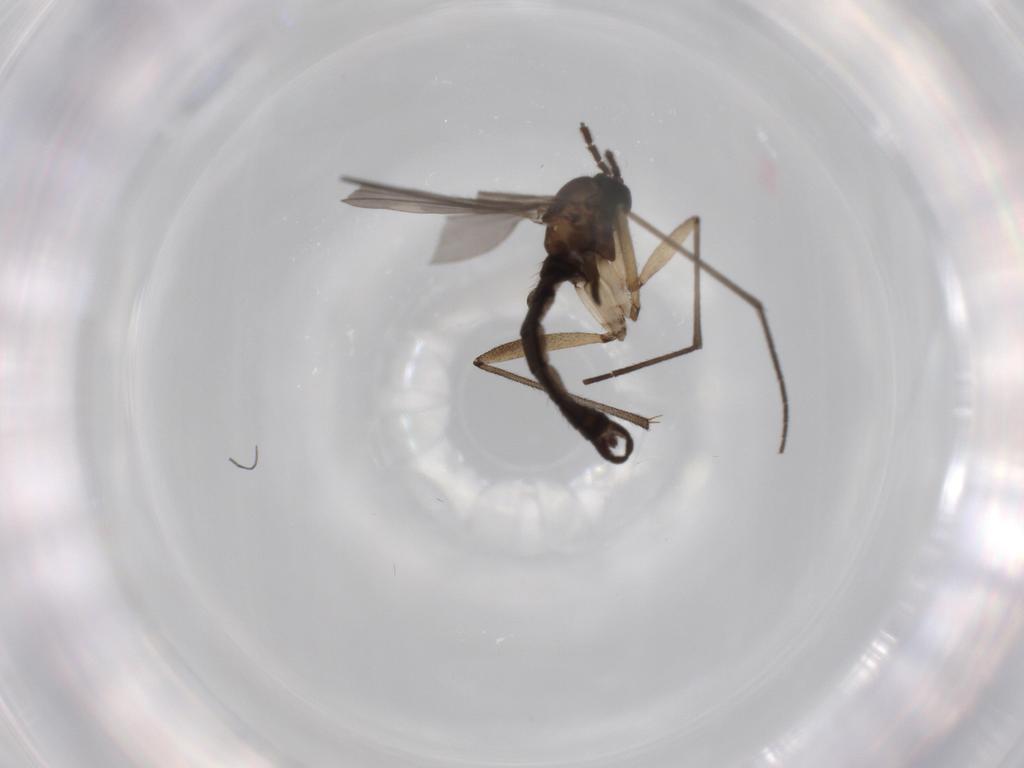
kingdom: Animalia
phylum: Arthropoda
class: Insecta
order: Diptera
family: Sciaridae
